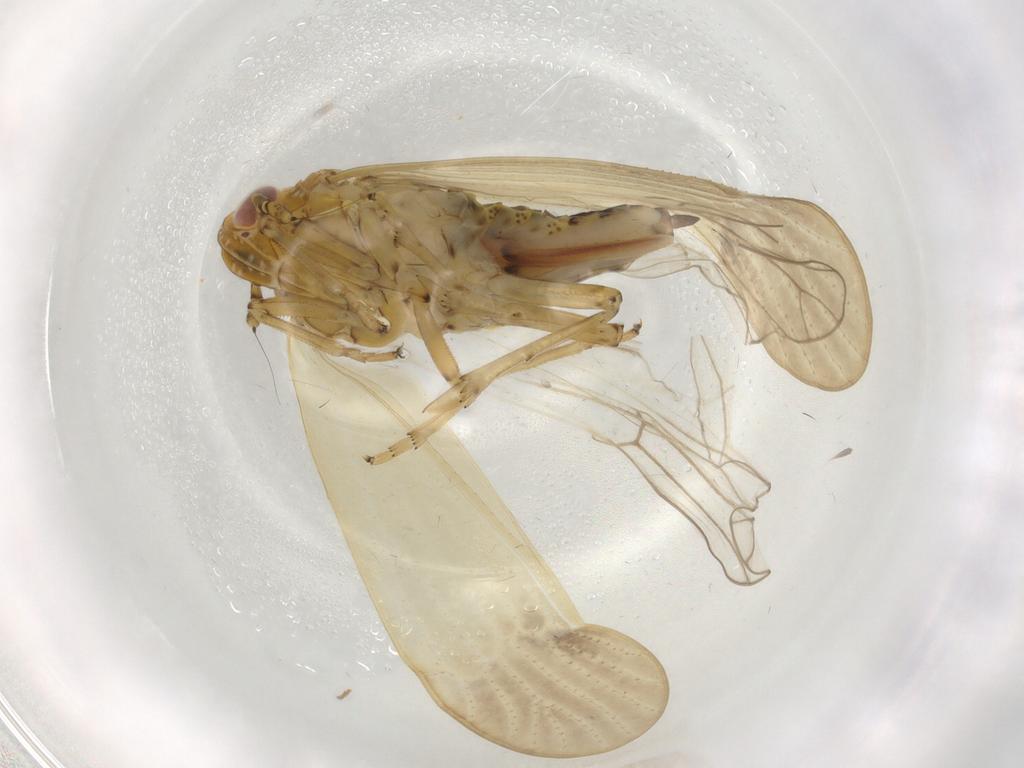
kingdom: Animalia
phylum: Arthropoda
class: Insecta
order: Hemiptera
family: Delphacidae
